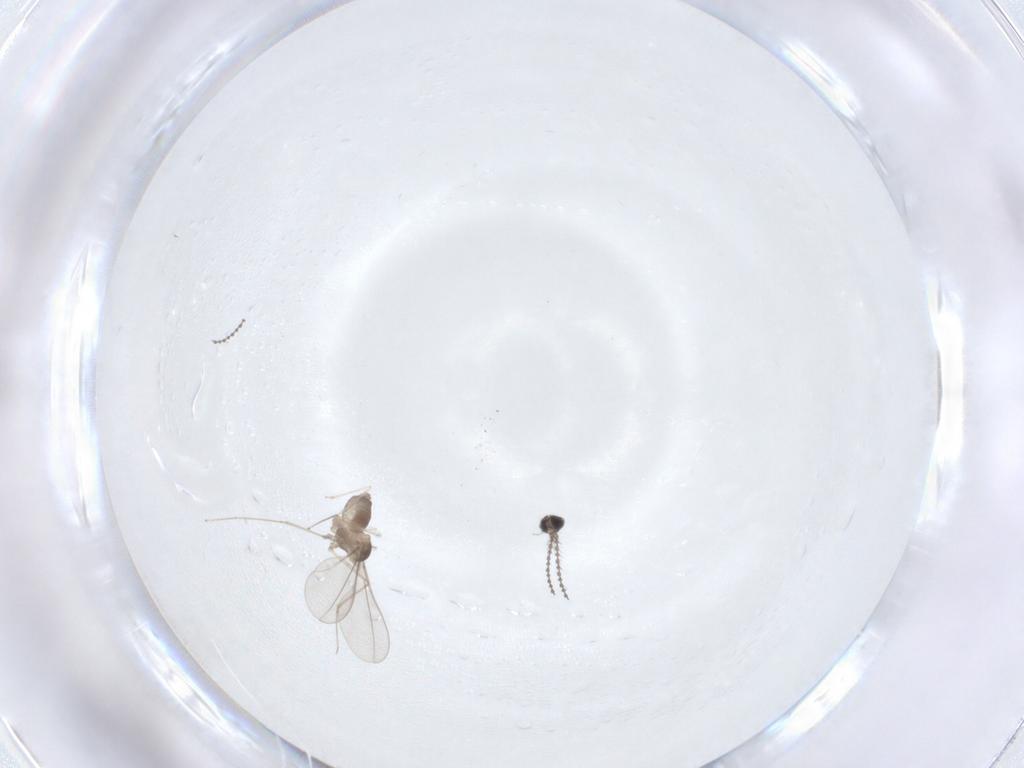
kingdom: Animalia
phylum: Arthropoda
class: Insecta
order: Diptera
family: Cecidomyiidae
